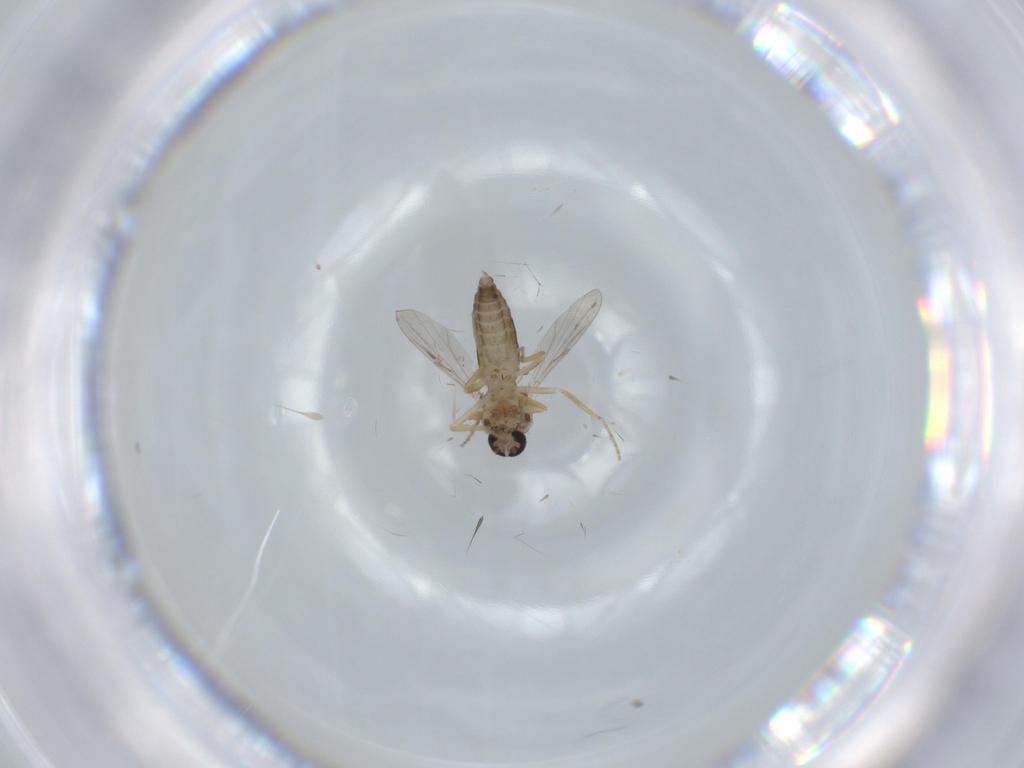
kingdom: Animalia
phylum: Arthropoda
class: Insecta
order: Diptera
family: Ceratopogonidae
